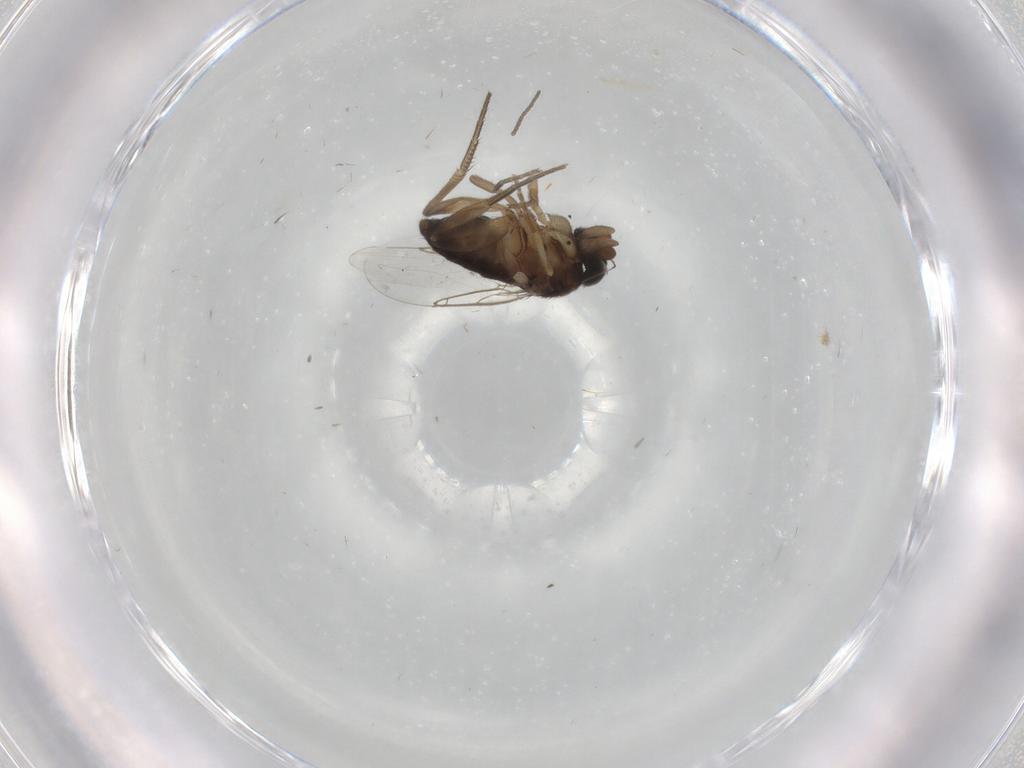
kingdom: Animalia
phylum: Arthropoda
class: Insecta
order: Diptera
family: Phoridae
